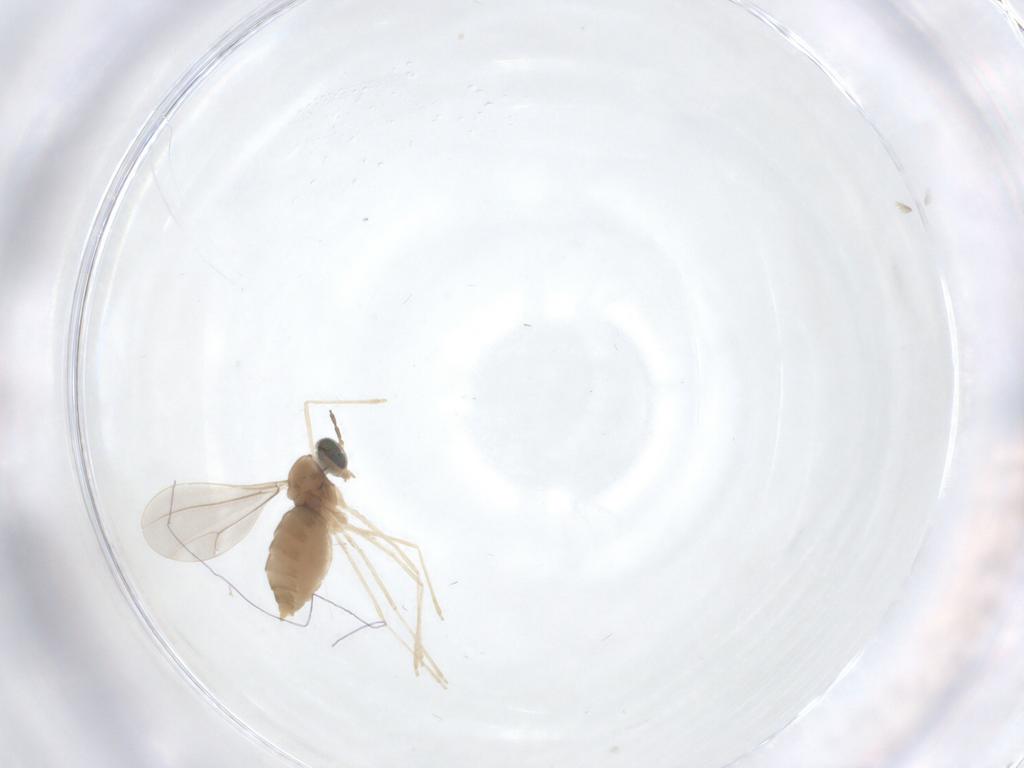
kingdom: Animalia
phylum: Arthropoda
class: Insecta
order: Diptera
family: Cecidomyiidae
